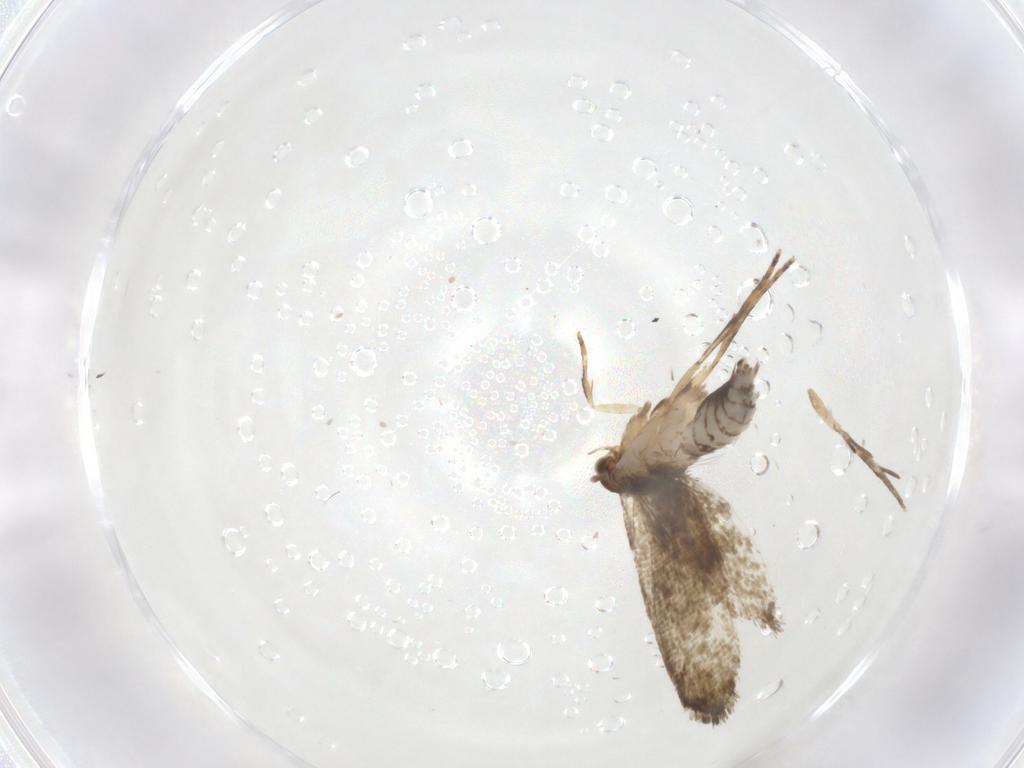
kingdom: Animalia
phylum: Arthropoda
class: Insecta
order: Lepidoptera
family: Crambidae
